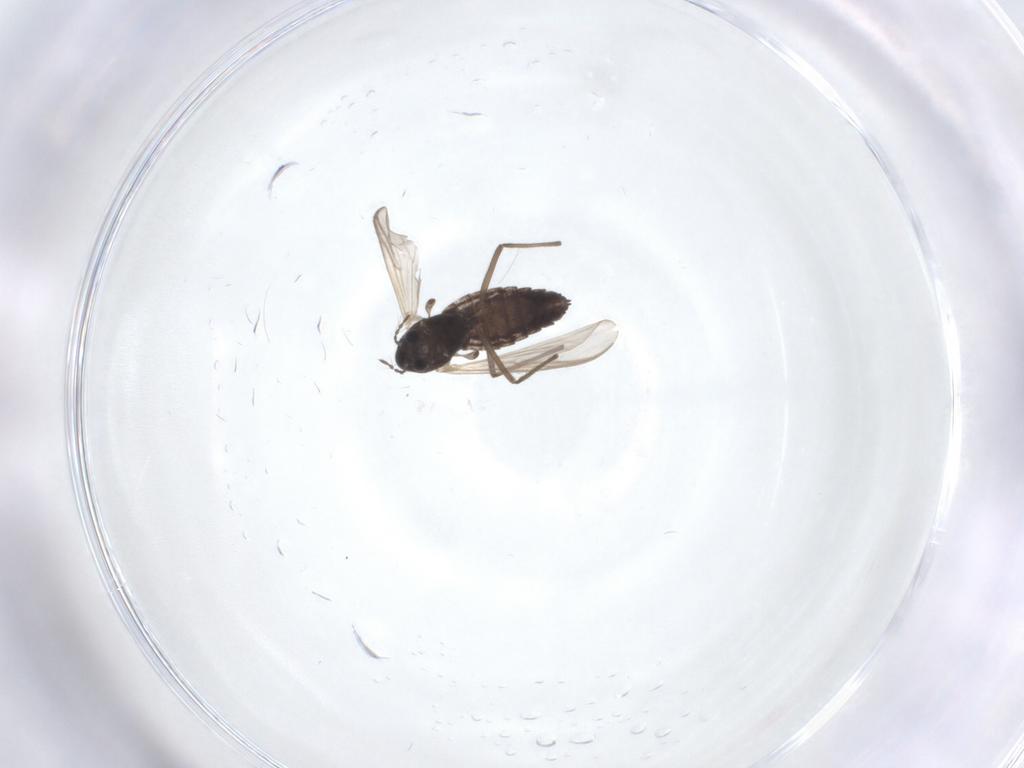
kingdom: Animalia
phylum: Arthropoda
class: Insecta
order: Diptera
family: Chironomidae
